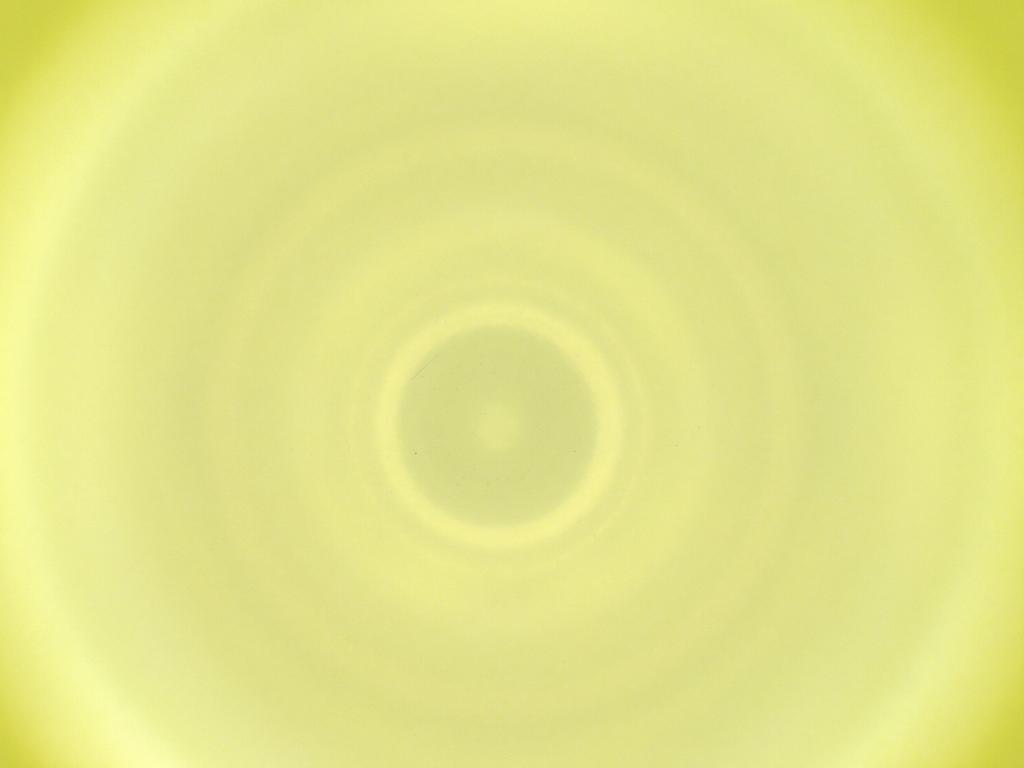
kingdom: Animalia
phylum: Arthropoda
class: Insecta
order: Diptera
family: Cecidomyiidae
